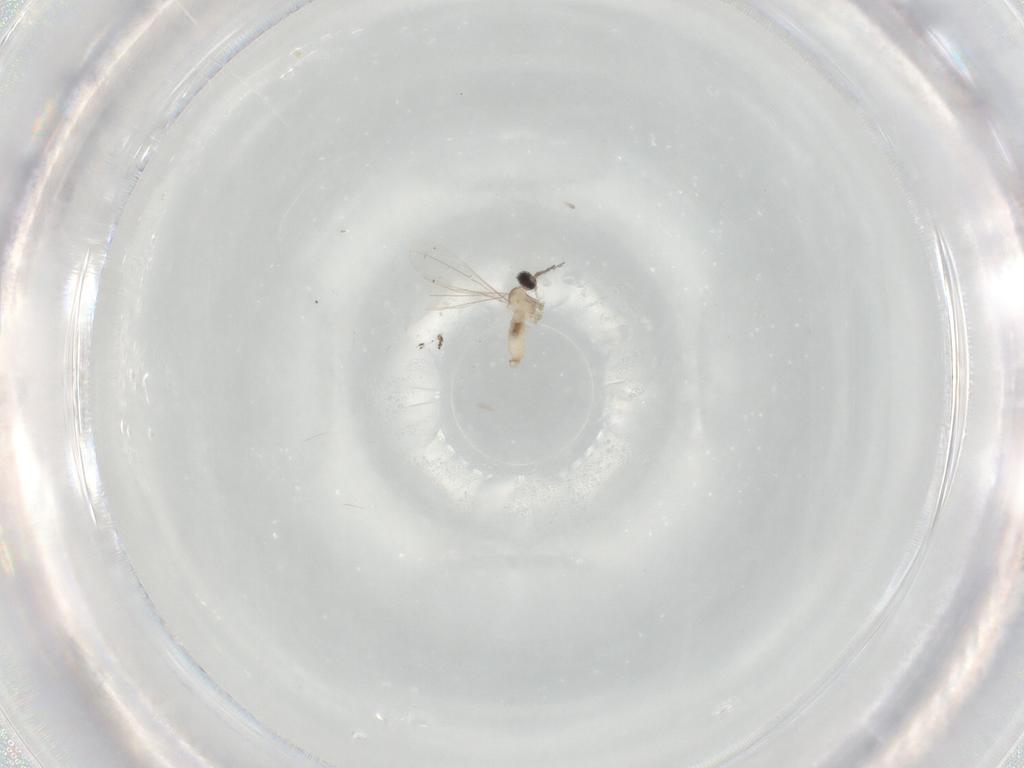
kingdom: Animalia
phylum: Arthropoda
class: Insecta
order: Diptera
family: Cecidomyiidae
